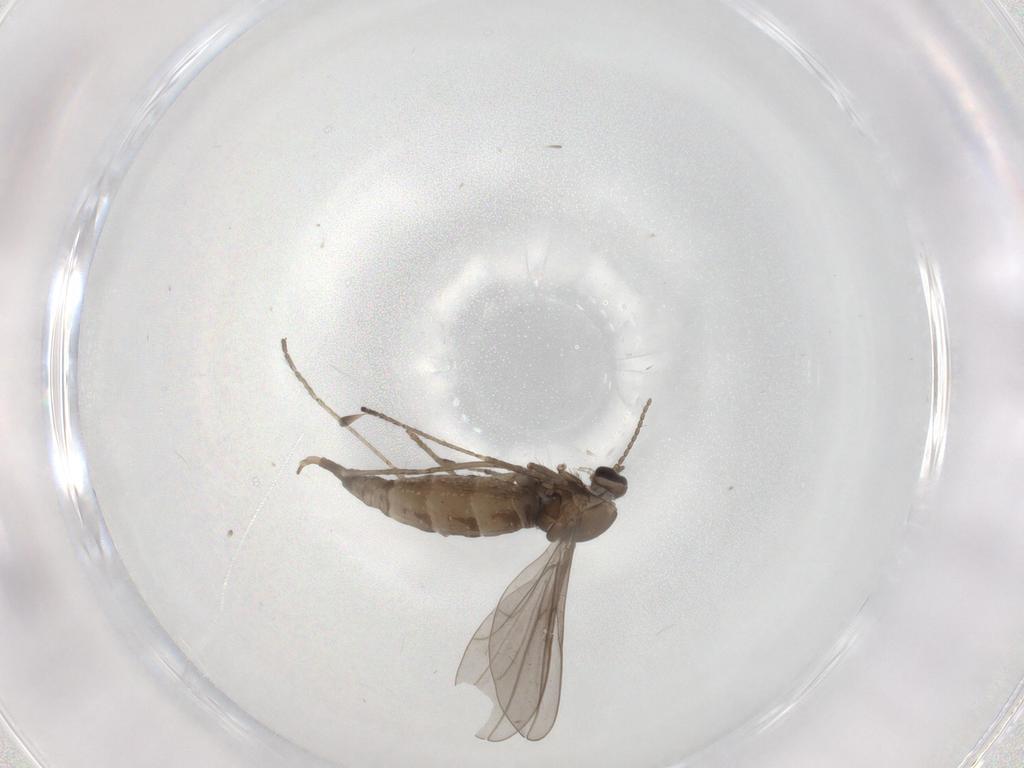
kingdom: Animalia
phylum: Arthropoda
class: Insecta
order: Diptera
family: Cecidomyiidae
